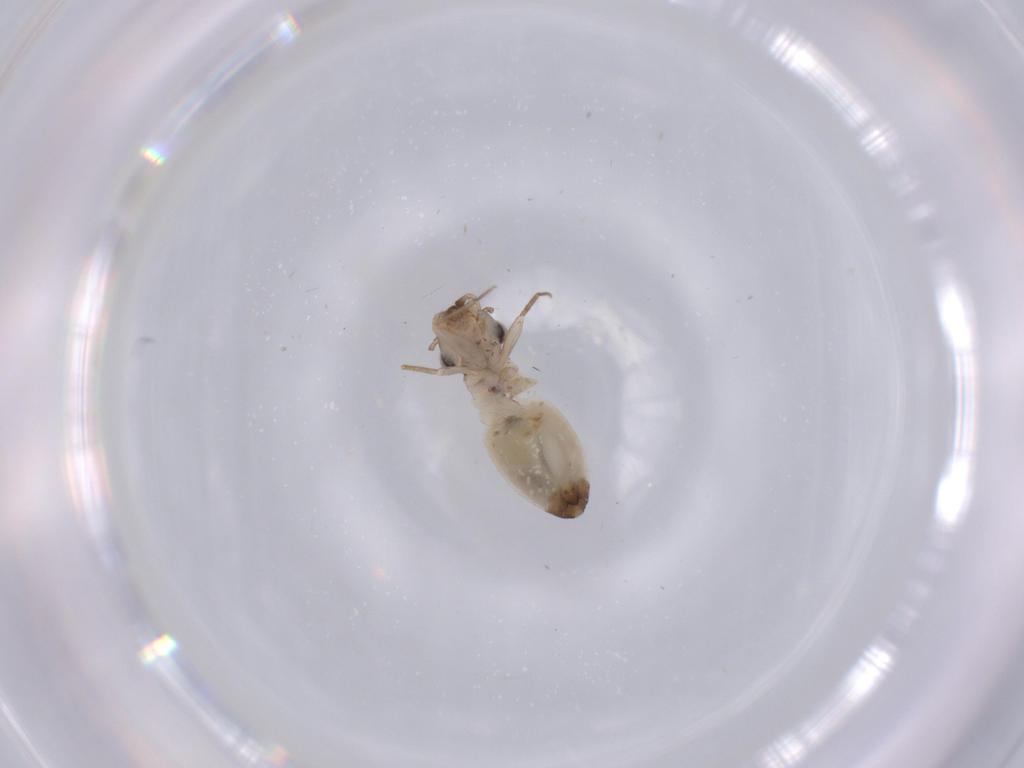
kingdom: Animalia
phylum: Arthropoda
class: Insecta
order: Psocodea
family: Lepidopsocidae
